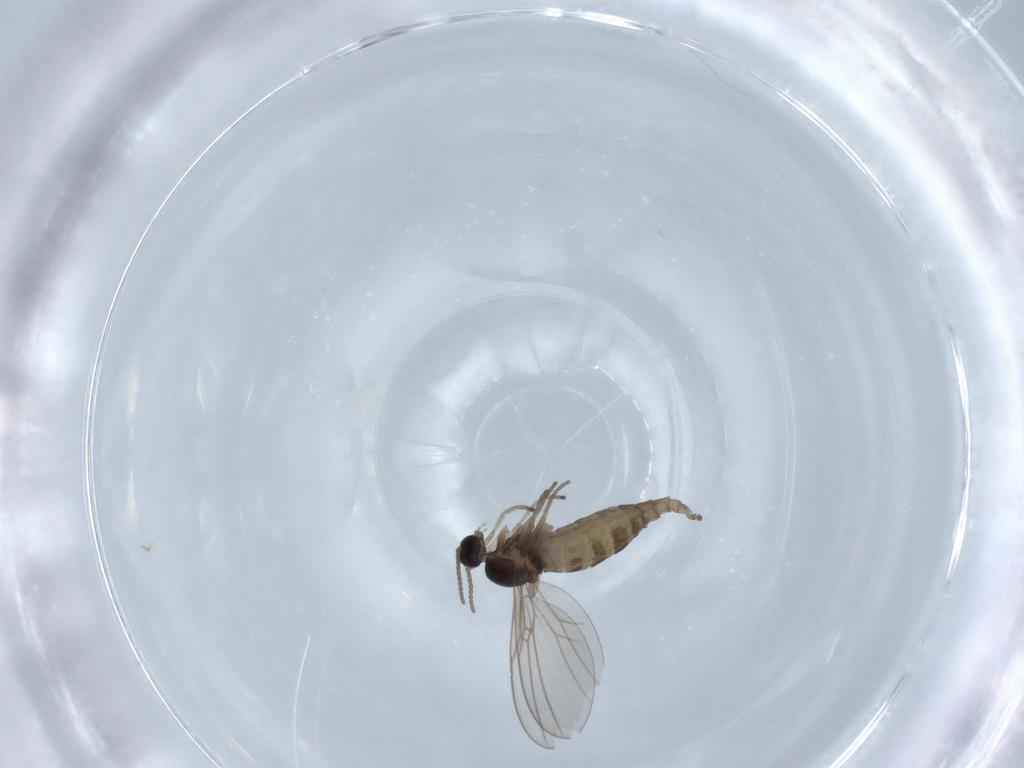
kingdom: Animalia
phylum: Arthropoda
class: Insecta
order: Diptera
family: Cecidomyiidae
